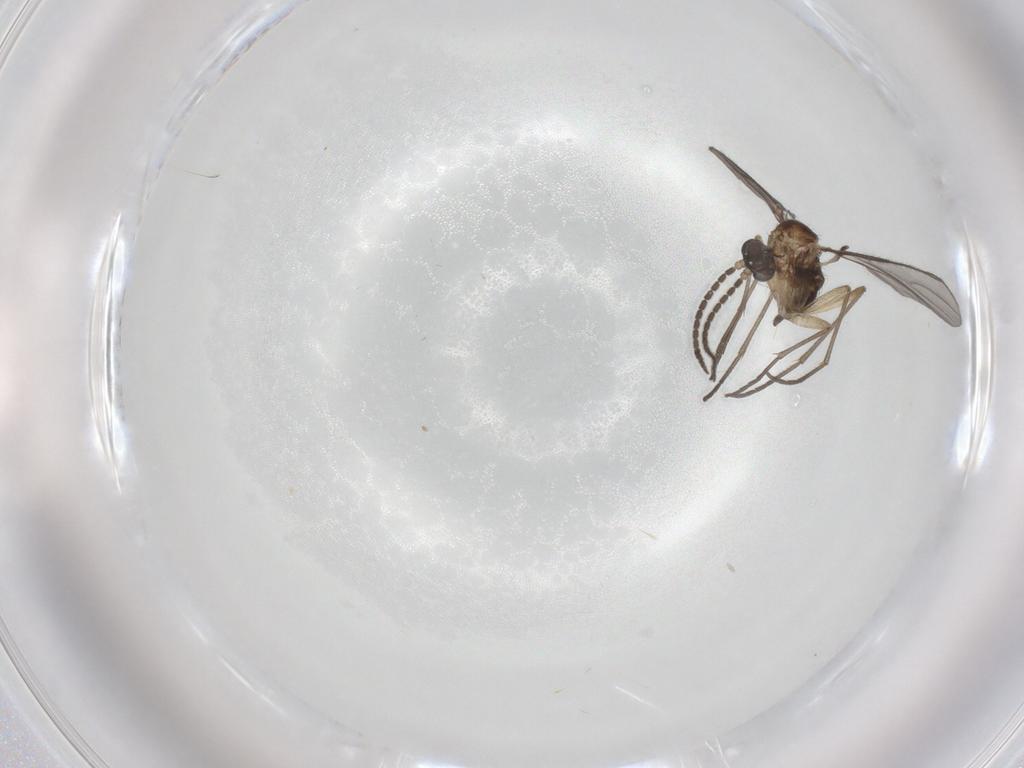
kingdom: Animalia
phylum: Arthropoda
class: Insecta
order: Diptera
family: Sciaridae
